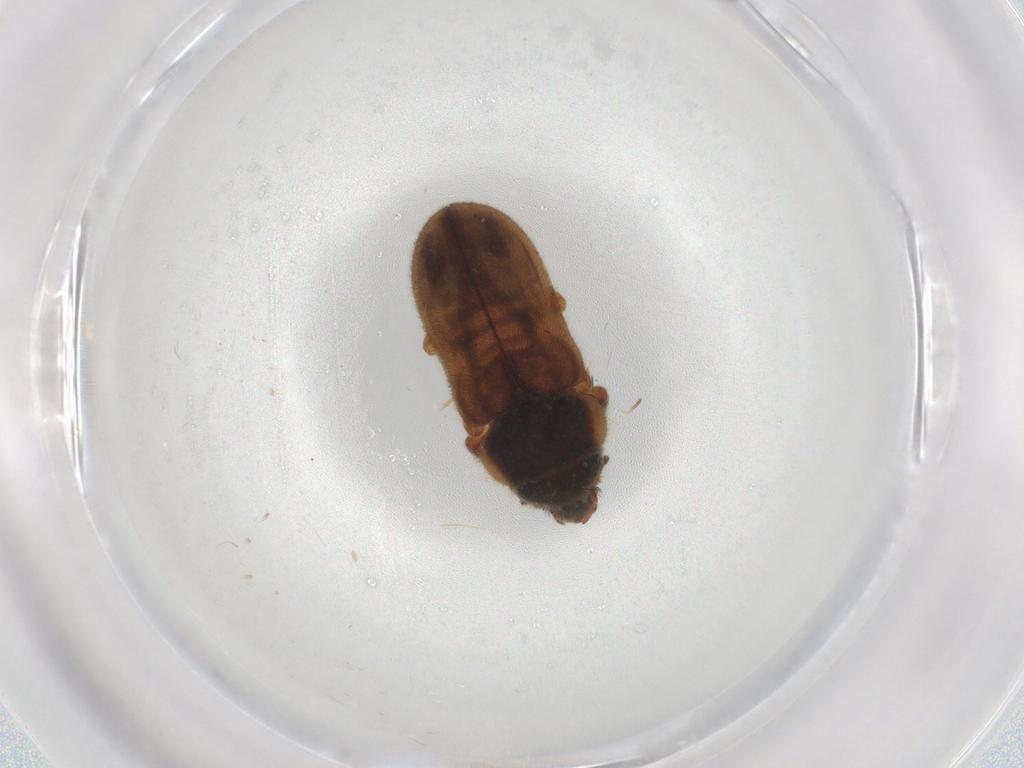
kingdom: Animalia
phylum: Arthropoda
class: Insecta
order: Coleoptera
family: Heteroceridae
